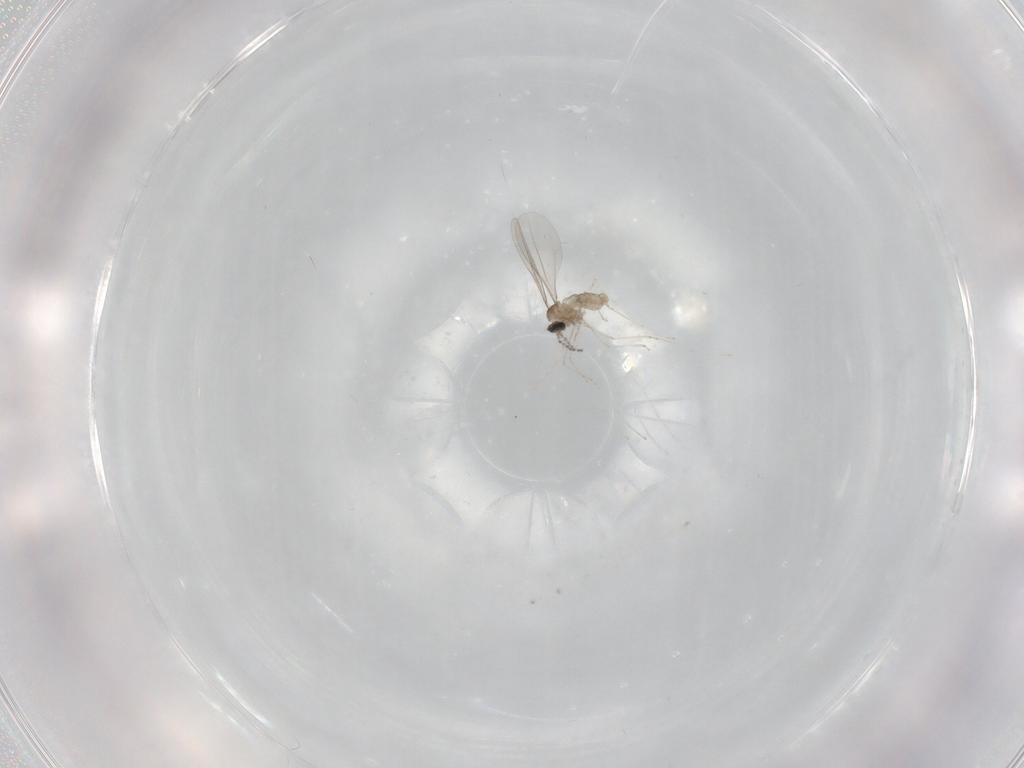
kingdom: Animalia
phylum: Arthropoda
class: Insecta
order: Diptera
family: Cecidomyiidae
